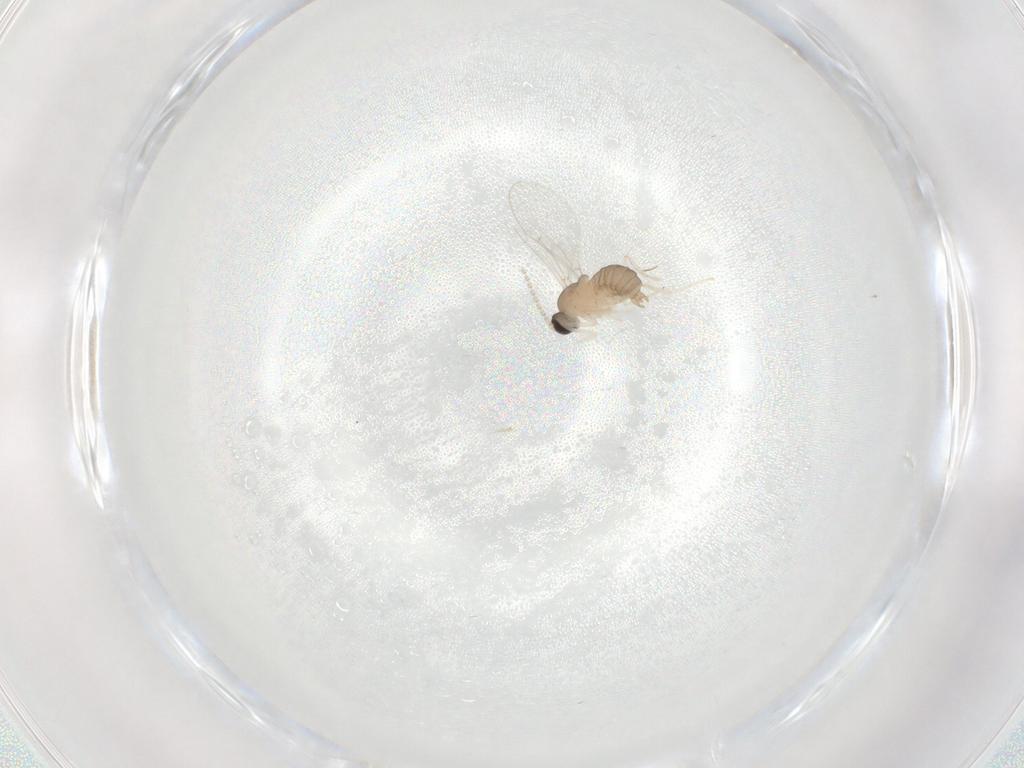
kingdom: Animalia
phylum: Arthropoda
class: Insecta
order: Diptera
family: Cecidomyiidae
